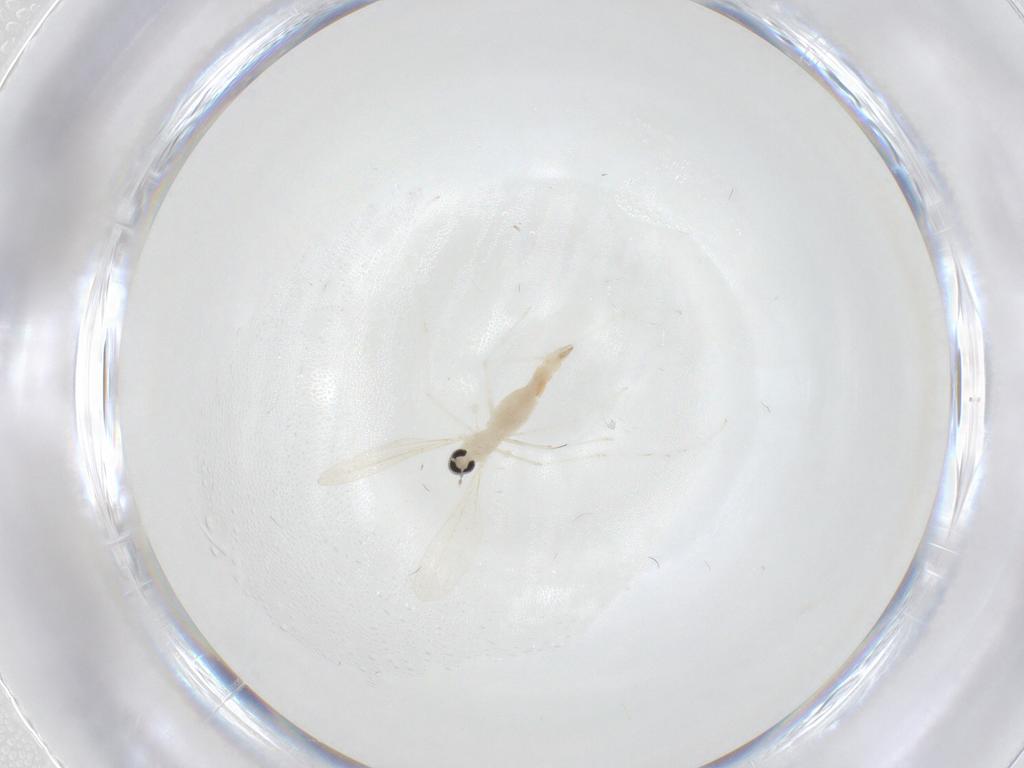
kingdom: Animalia
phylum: Arthropoda
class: Insecta
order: Diptera
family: Cecidomyiidae
